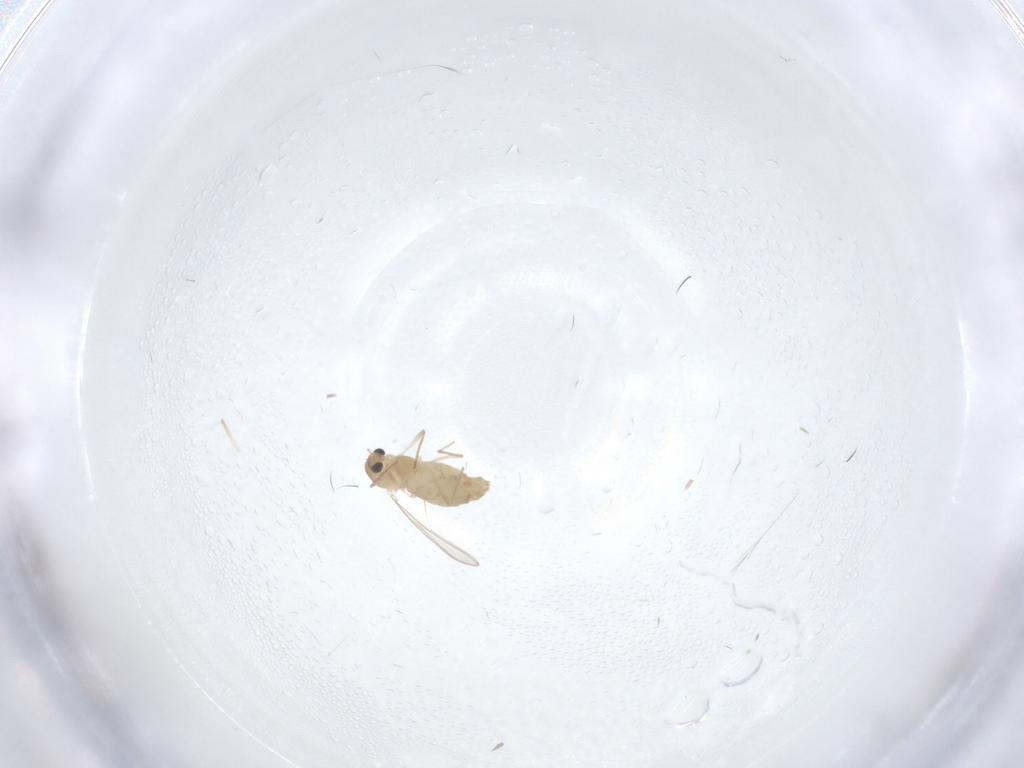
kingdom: Animalia
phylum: Arthropoda
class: Insecta
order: Diptera
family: Chironomidae
